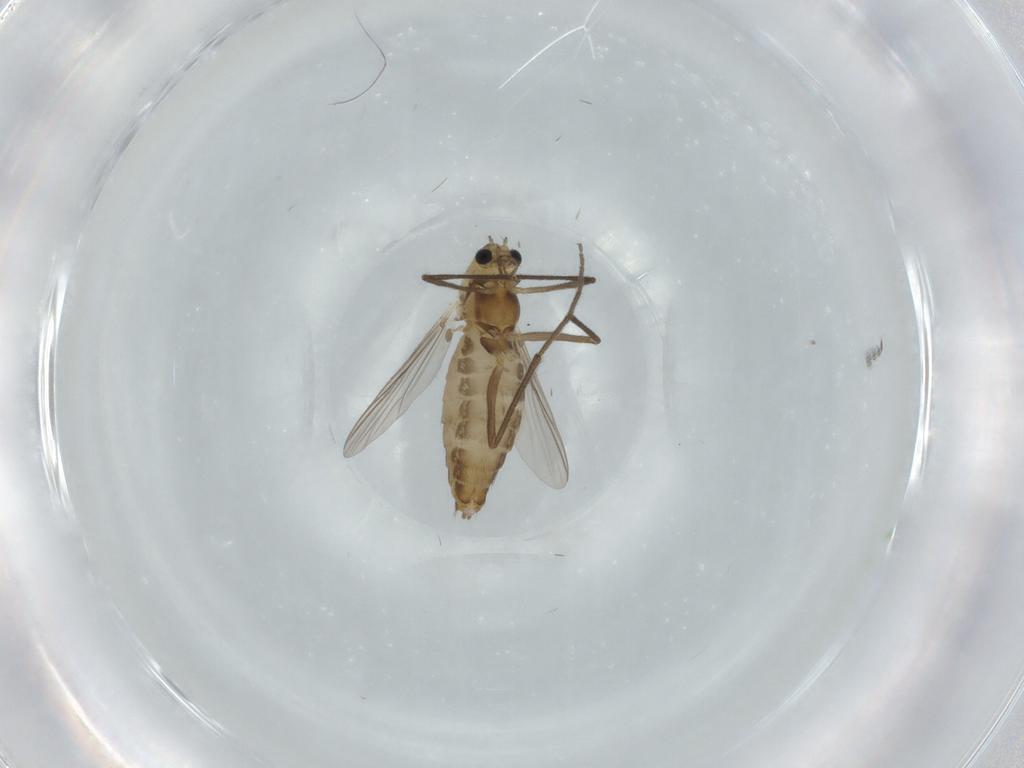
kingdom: Animalia
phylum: Arthropoda
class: Insecta
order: Diptera
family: Chironomidae
